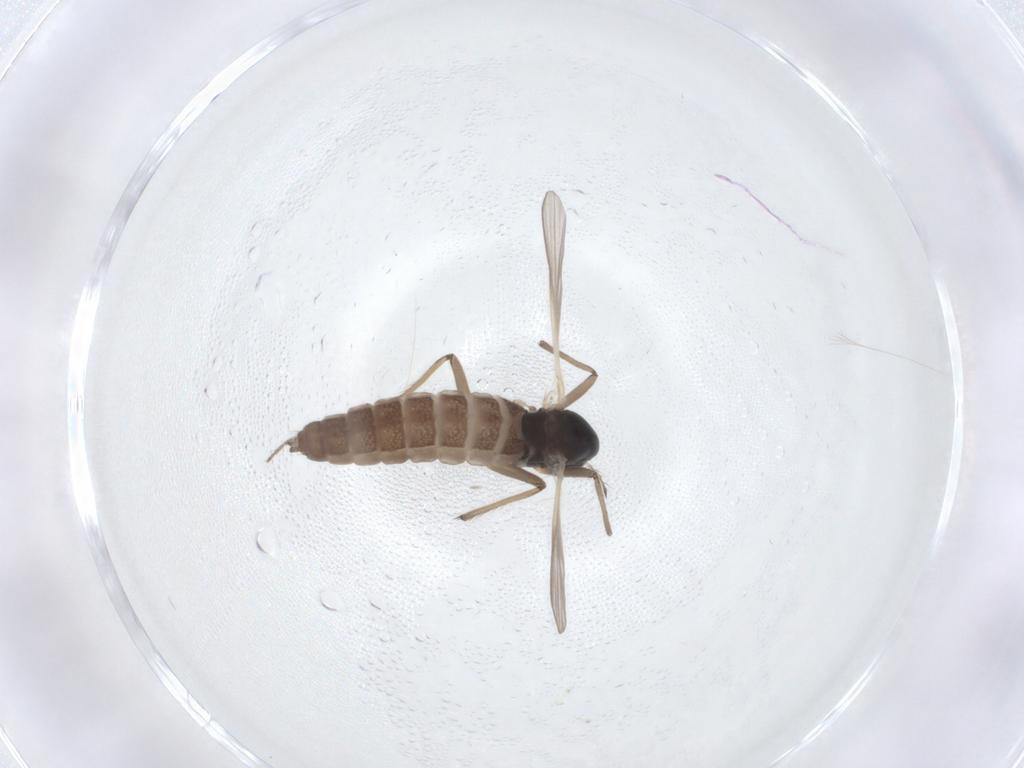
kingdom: Animalia
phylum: Arthropoda
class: Insecta
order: Diptera
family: Chironomidae
